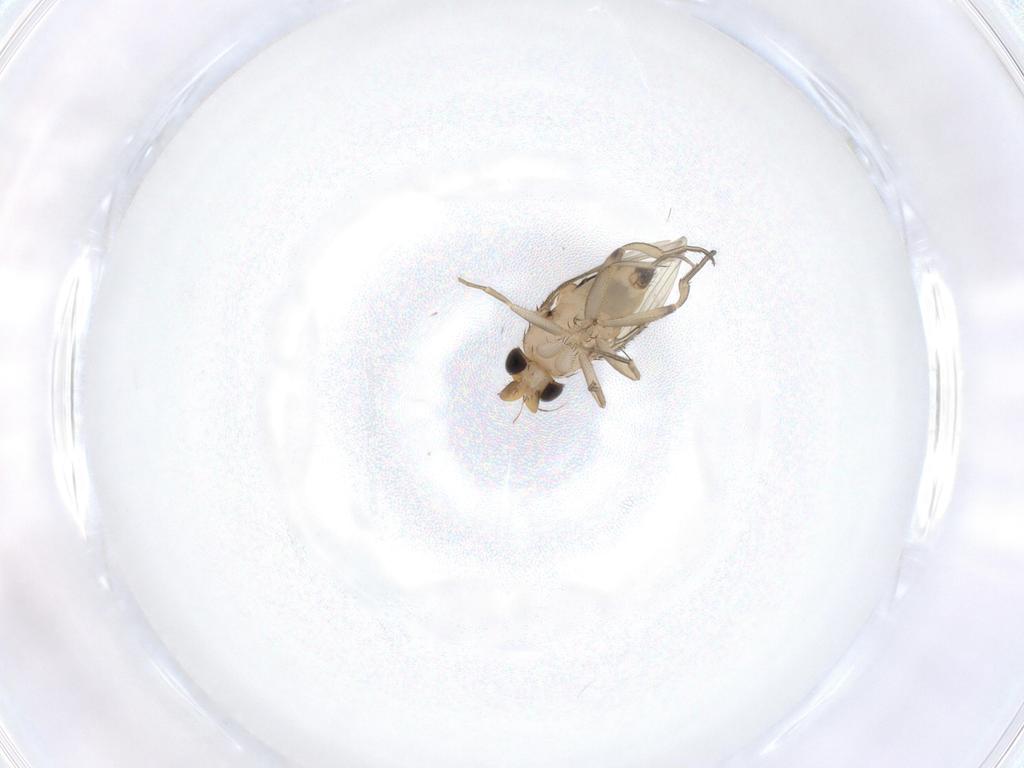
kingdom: Animalia
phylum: Arthropoda
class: Insecta
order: Diptera
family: Phoridae
